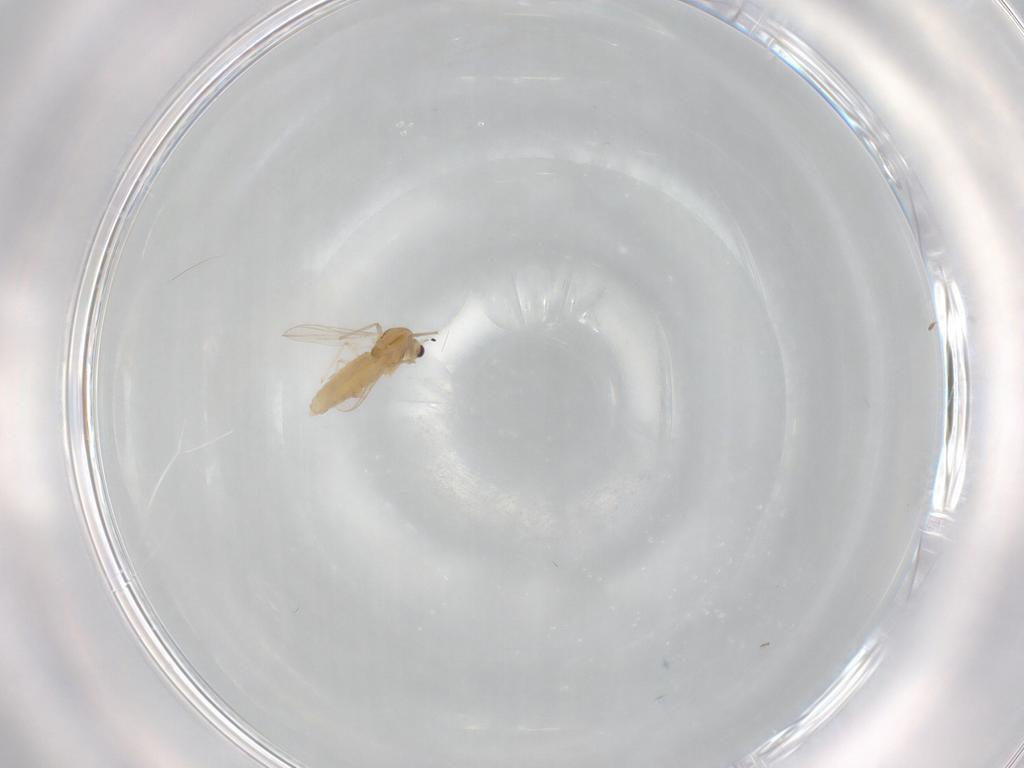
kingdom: Animalia
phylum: Arthropoda
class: Insecta
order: Diptera
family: Chironomidae
